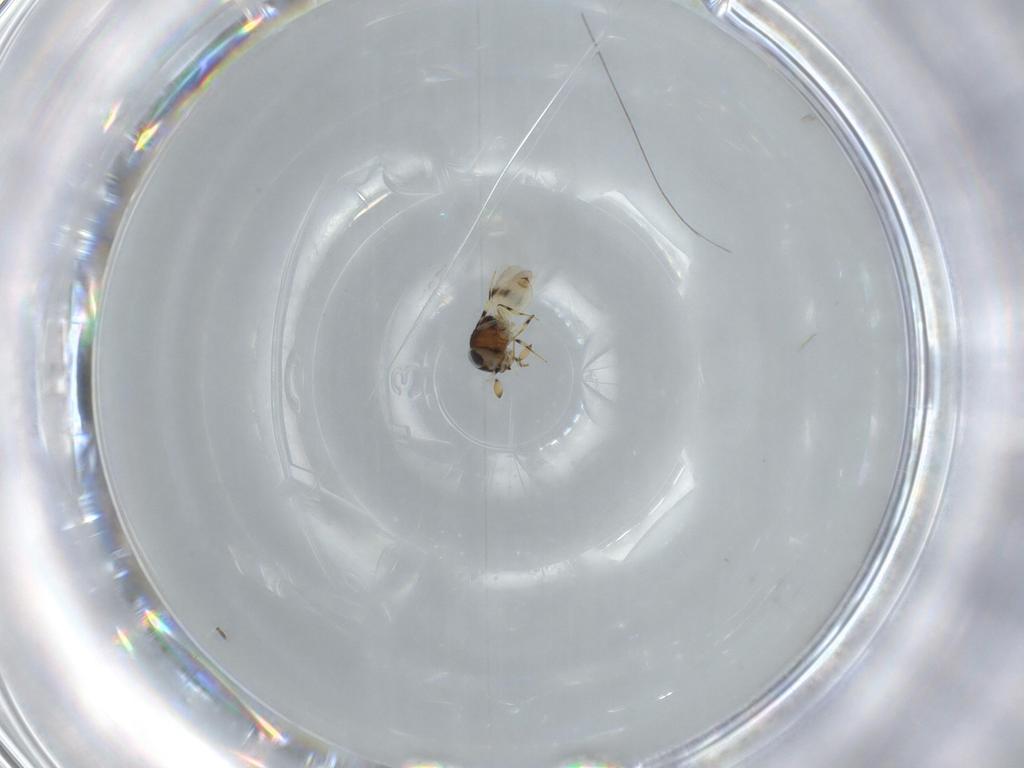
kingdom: Animalia
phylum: Arthropoda
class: Insecta
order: Hymenoptera
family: Scelionidae
